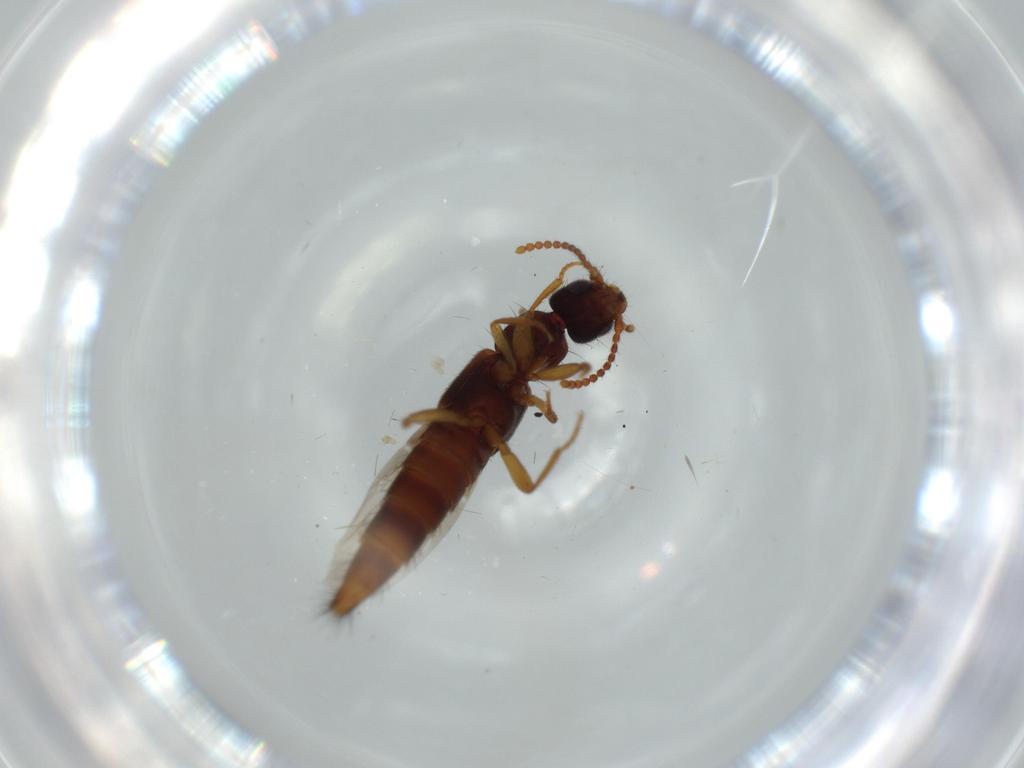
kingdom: Animalia
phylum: Arthropoda
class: Insecta
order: Coleoptera
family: Staphylinidae
